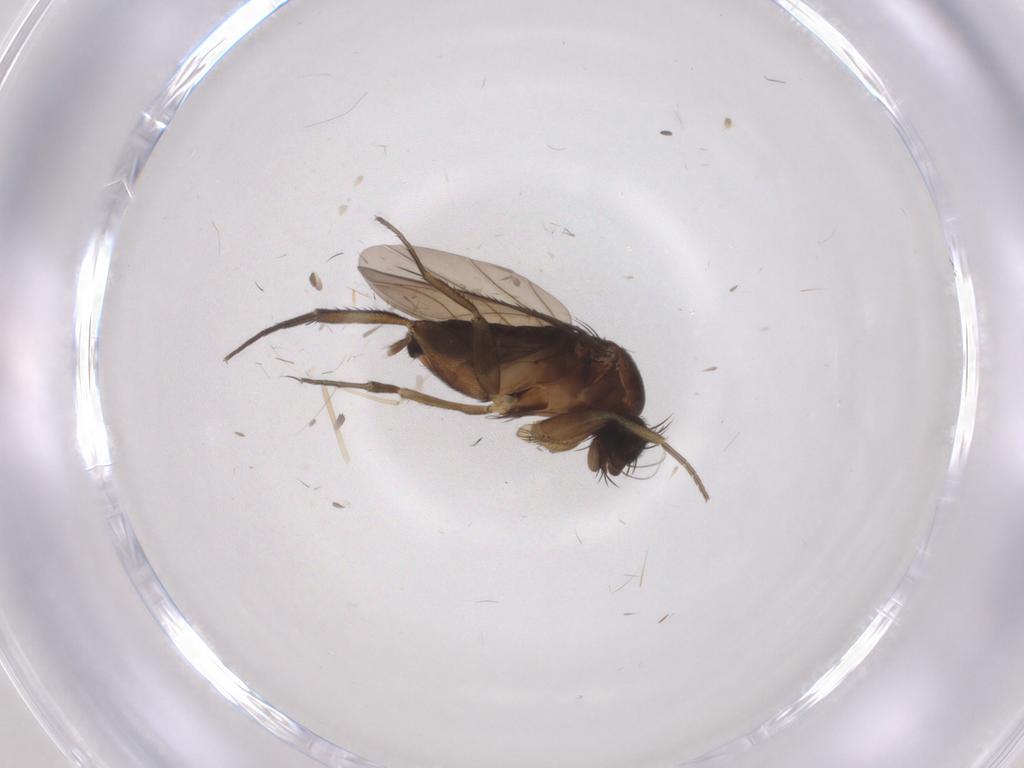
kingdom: Animalia
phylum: Arthropoda
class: Insecta
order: Diptera
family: Phoridae
